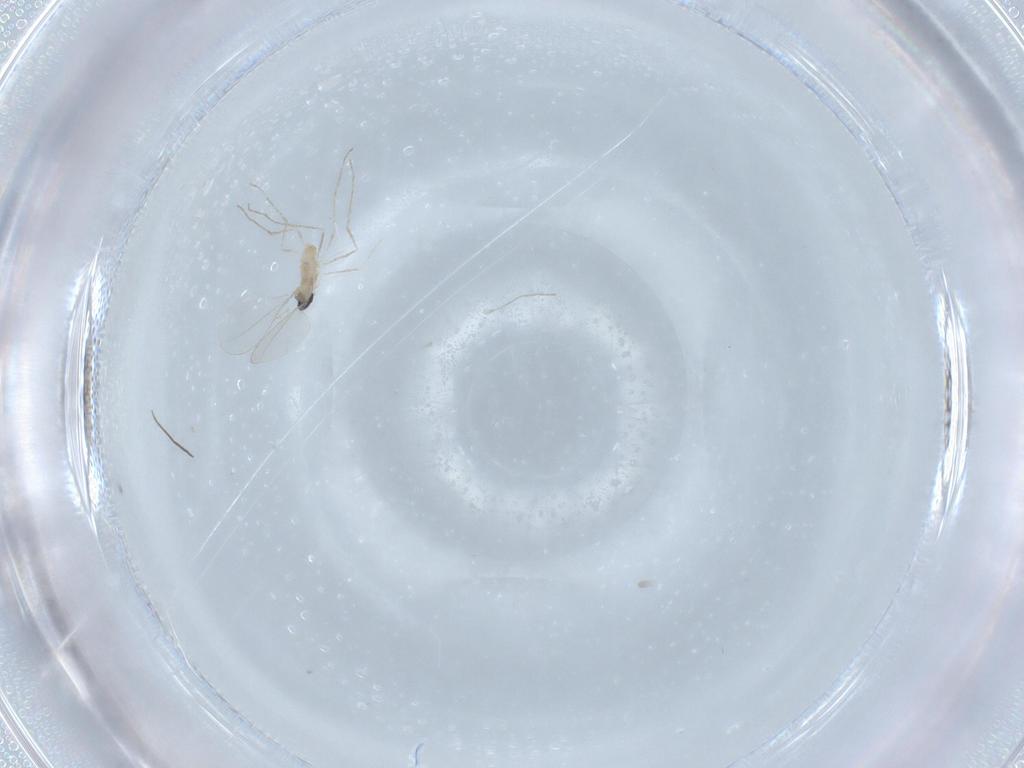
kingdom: Animalia
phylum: Arthropoda
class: Insecta
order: Diptera
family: Cecidomyiidae
